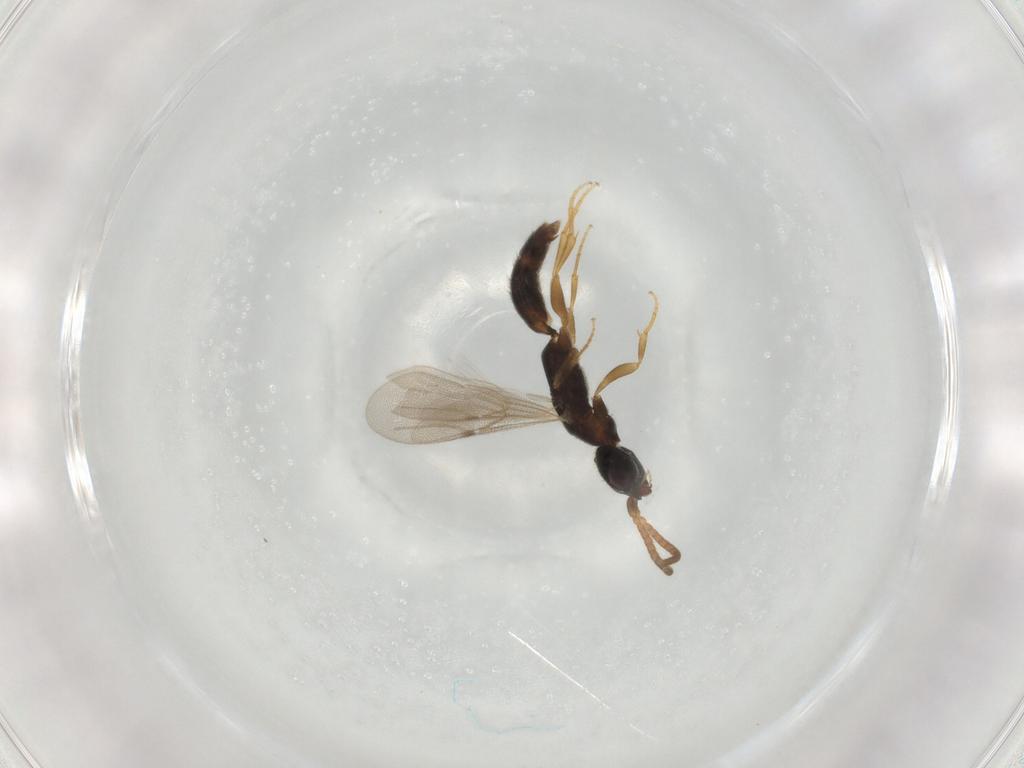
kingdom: Animalia
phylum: Arthropoda
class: Insecta
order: Hymenoptera
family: Bethylidae
